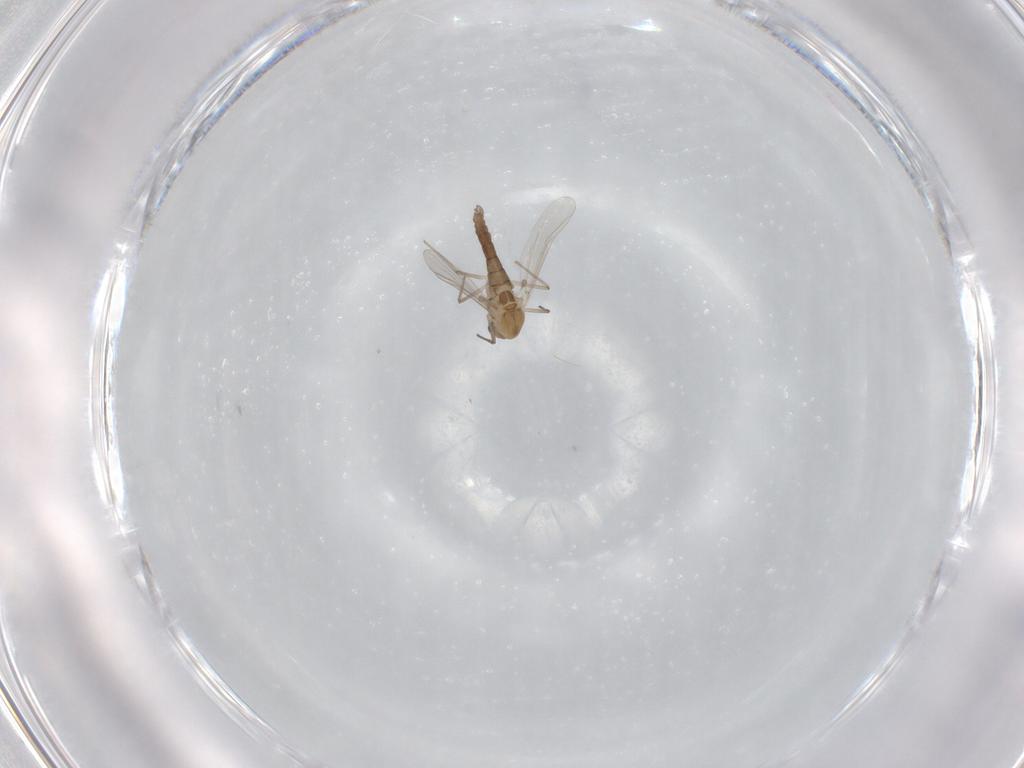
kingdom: Animalia
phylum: Arthropoda
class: Insecta
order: Diptera
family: Chironomidae
